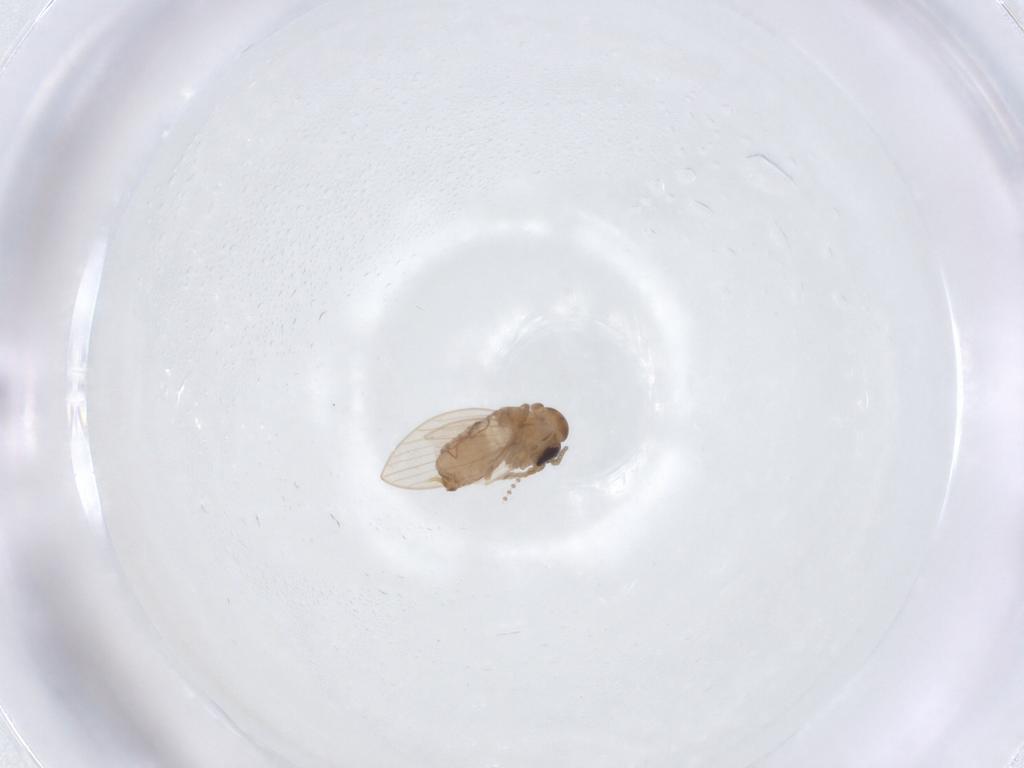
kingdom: Animalia
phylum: Arthropoda
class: Insecta
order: Diptera
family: Psychodidae
